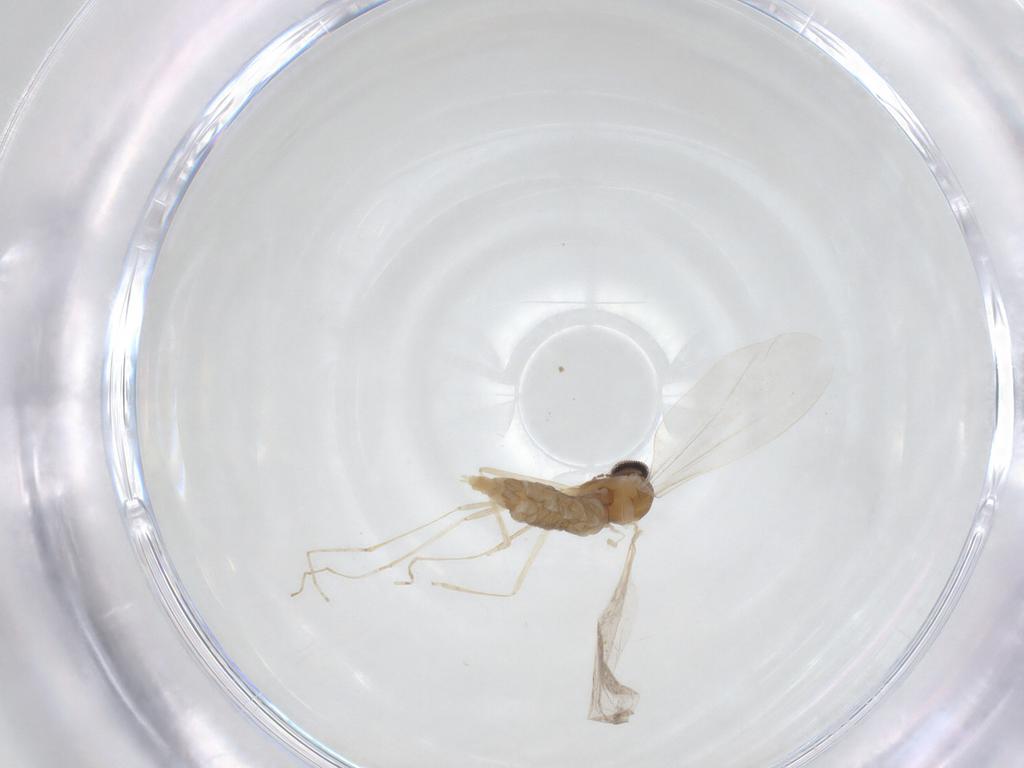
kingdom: Animalia
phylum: Arthropoda
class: Insecta
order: Diptera
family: Cecidomyiidae
